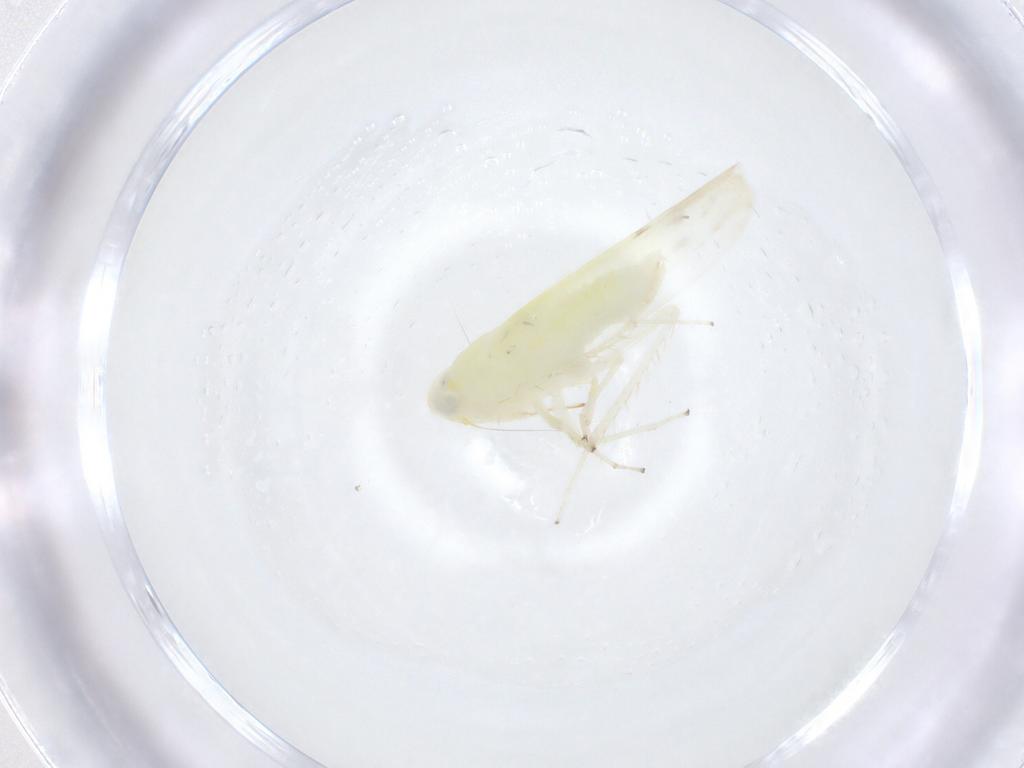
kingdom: Animalia
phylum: Arthropoda
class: Insecta
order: Hemiptera
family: Cicadellidae
